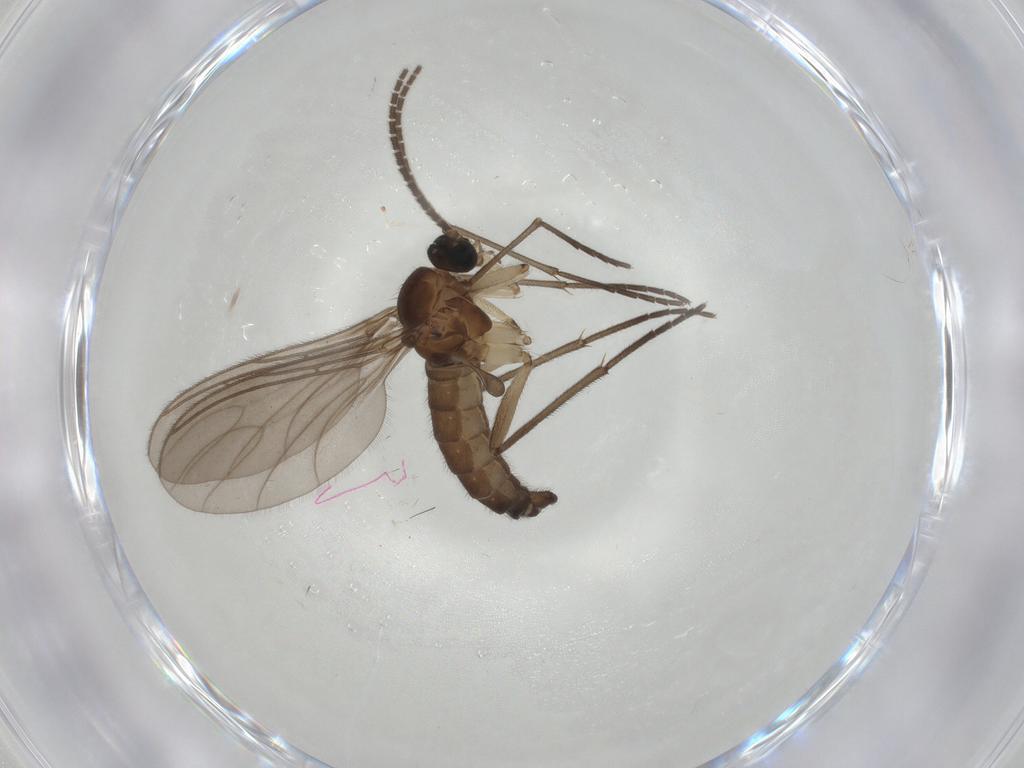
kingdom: Animalia
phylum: Arthropoda
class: Insecta
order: Diptera
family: Sciaridae
